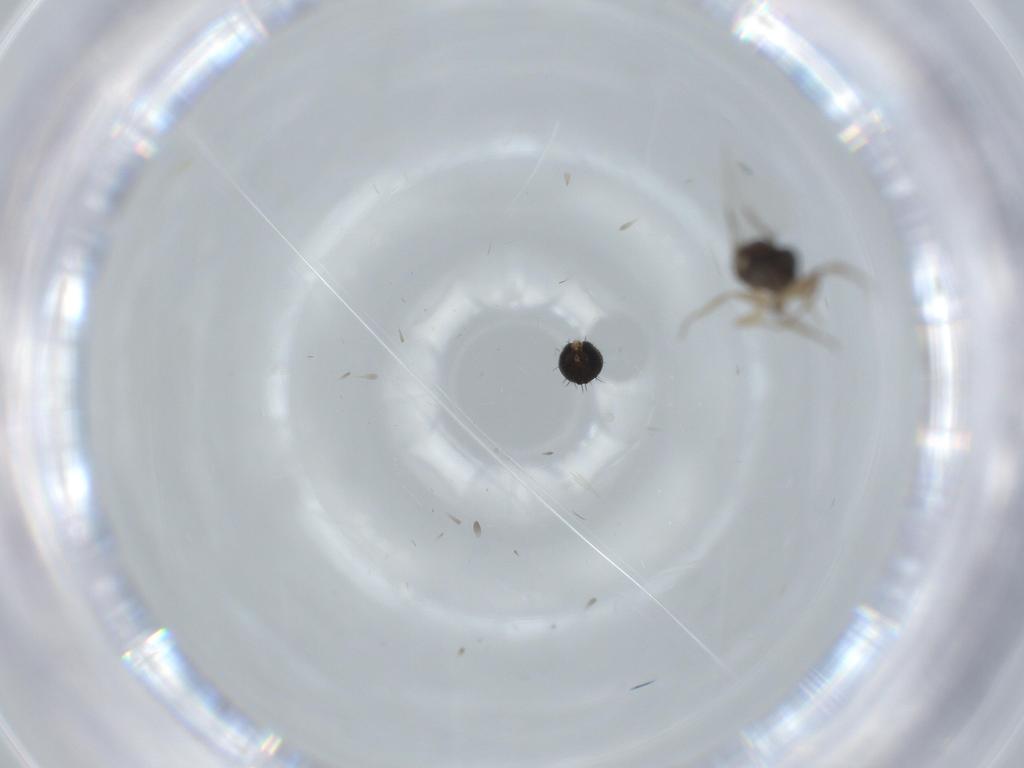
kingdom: Animalia
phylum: Arthropoda
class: Insecta
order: Diptera
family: Phoridae
